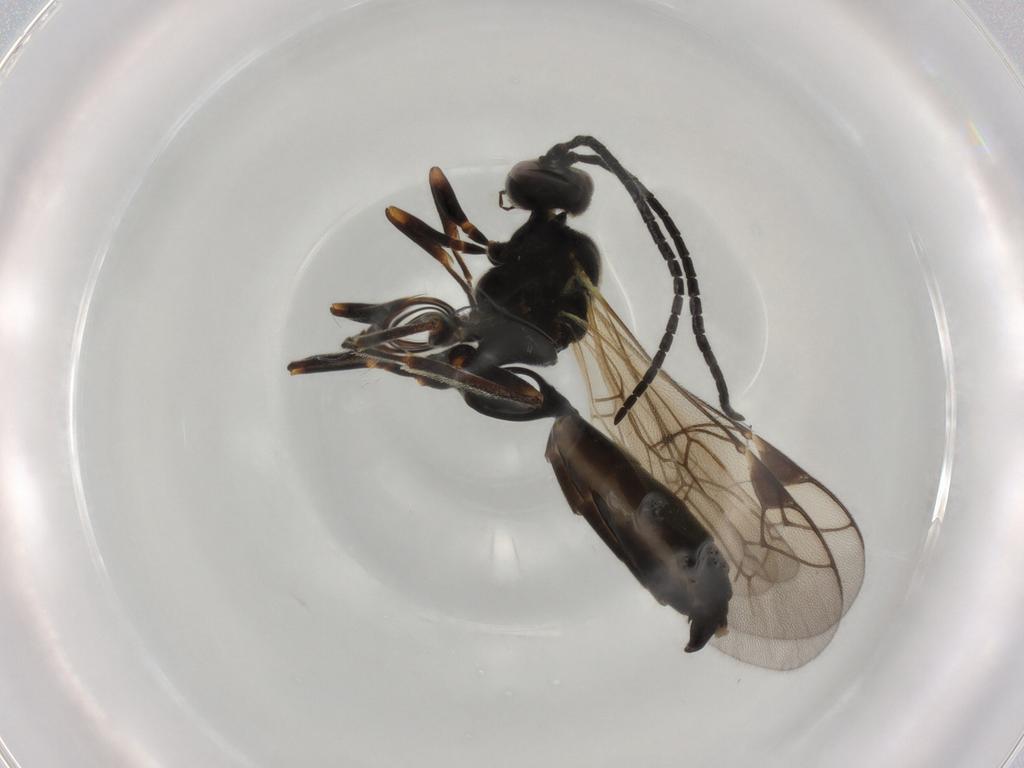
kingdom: Animalia
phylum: Arthropoda
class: Insecta
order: Hymenoptera
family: Ichneumonidae
